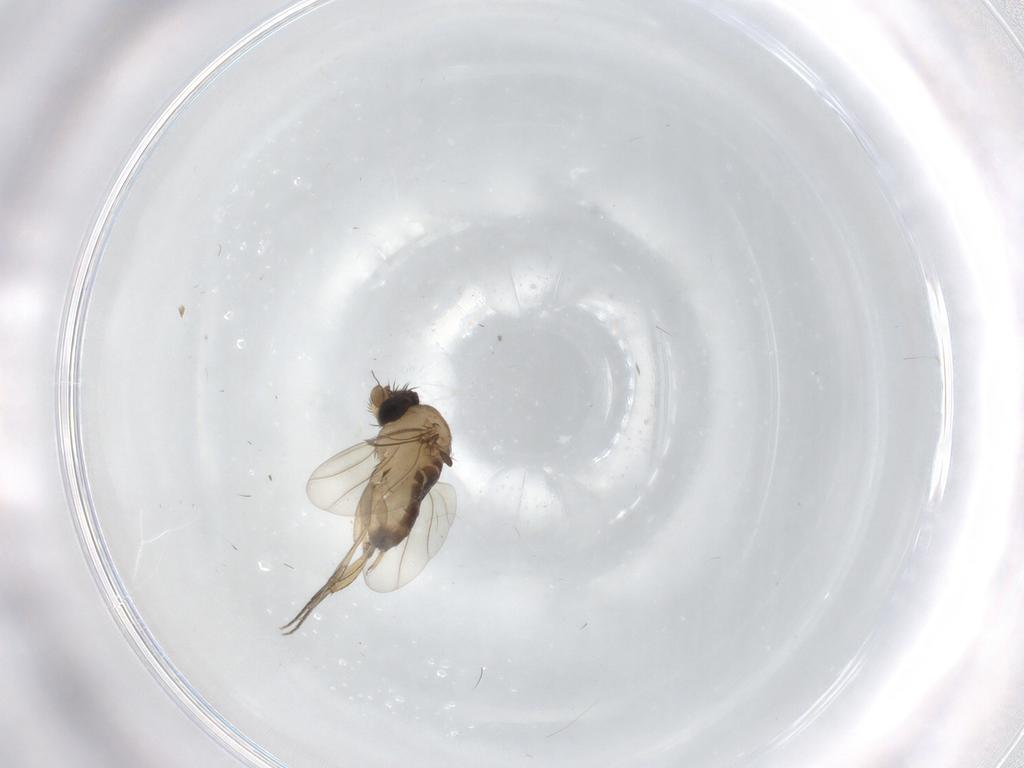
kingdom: Animalia
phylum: Arthropoda
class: Insecta
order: Diptera
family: Phoridae
